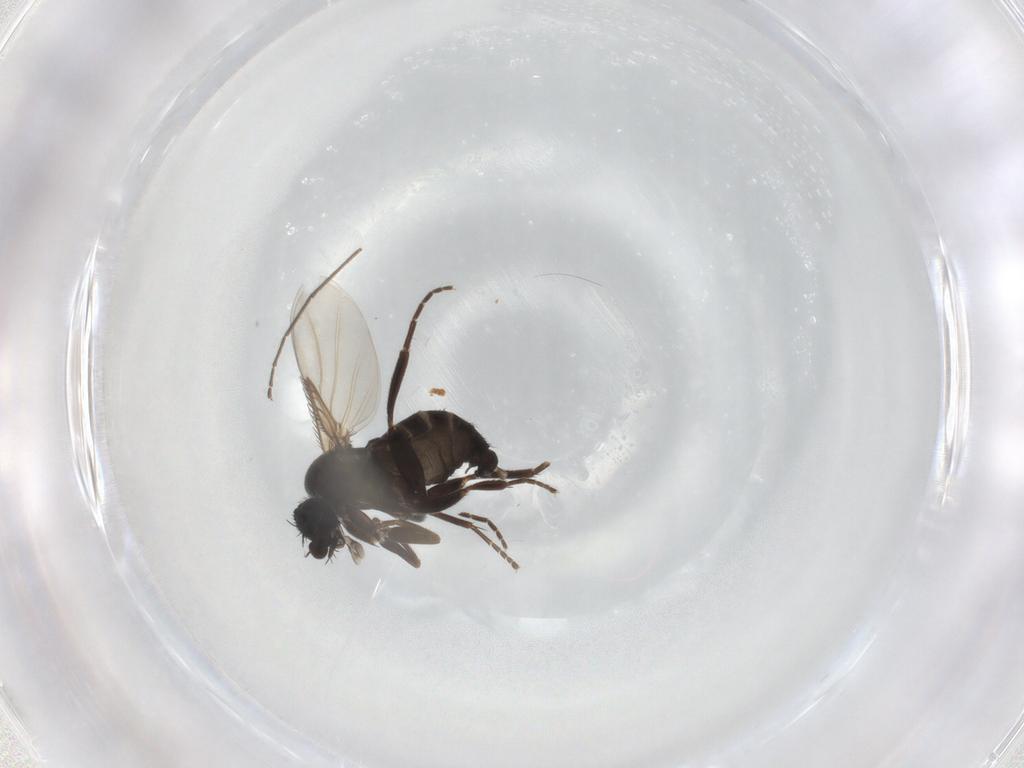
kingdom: Animalia
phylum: Arthropoda
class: Insecta
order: Diptera
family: Phoridae
